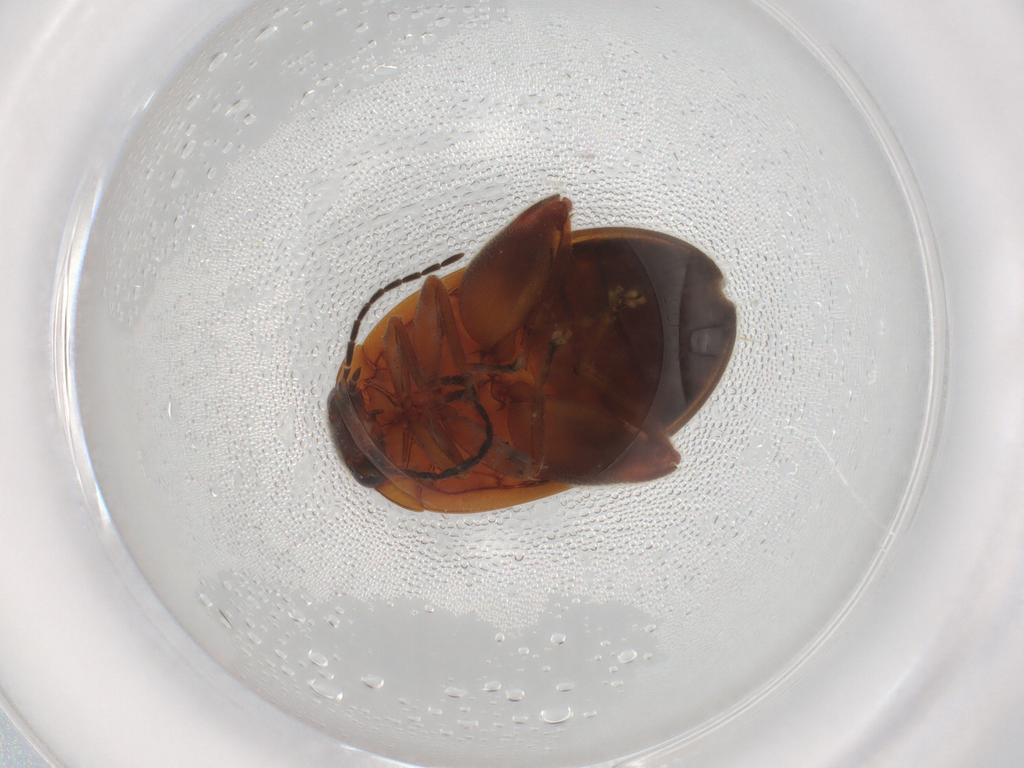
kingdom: Animalia
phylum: Arthropoda
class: Insecta
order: Coleoptera
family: Scirtidae
